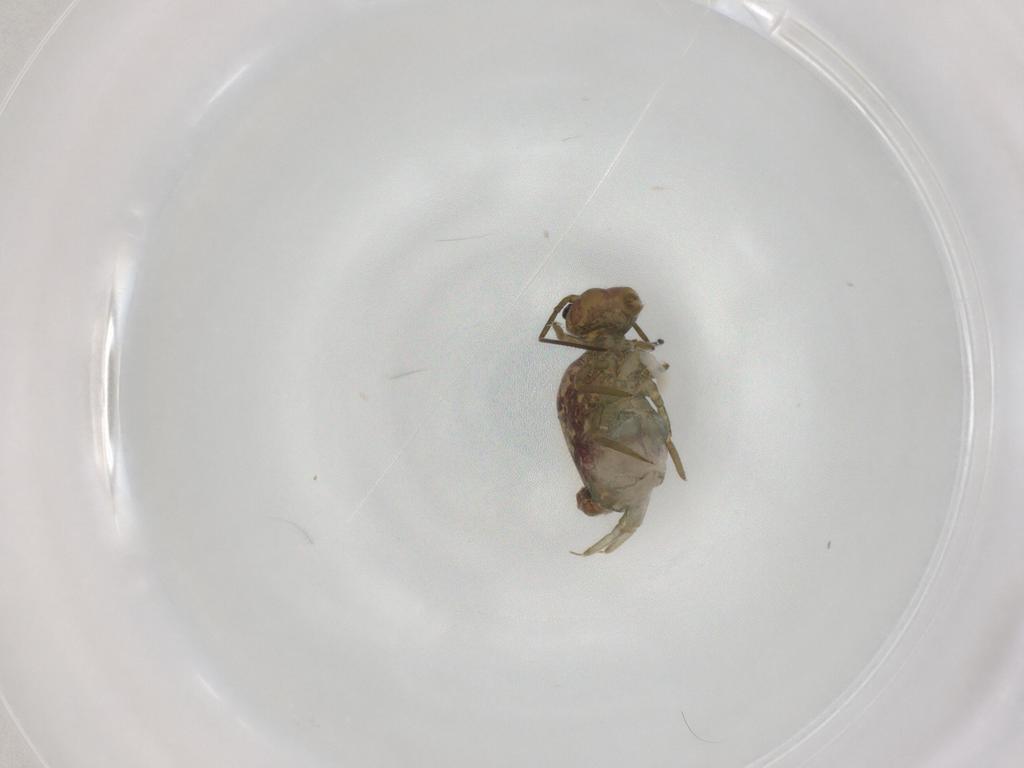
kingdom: Animalia
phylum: Arthropoda
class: Collembola
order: Symphypleona
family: Sminthuridae
